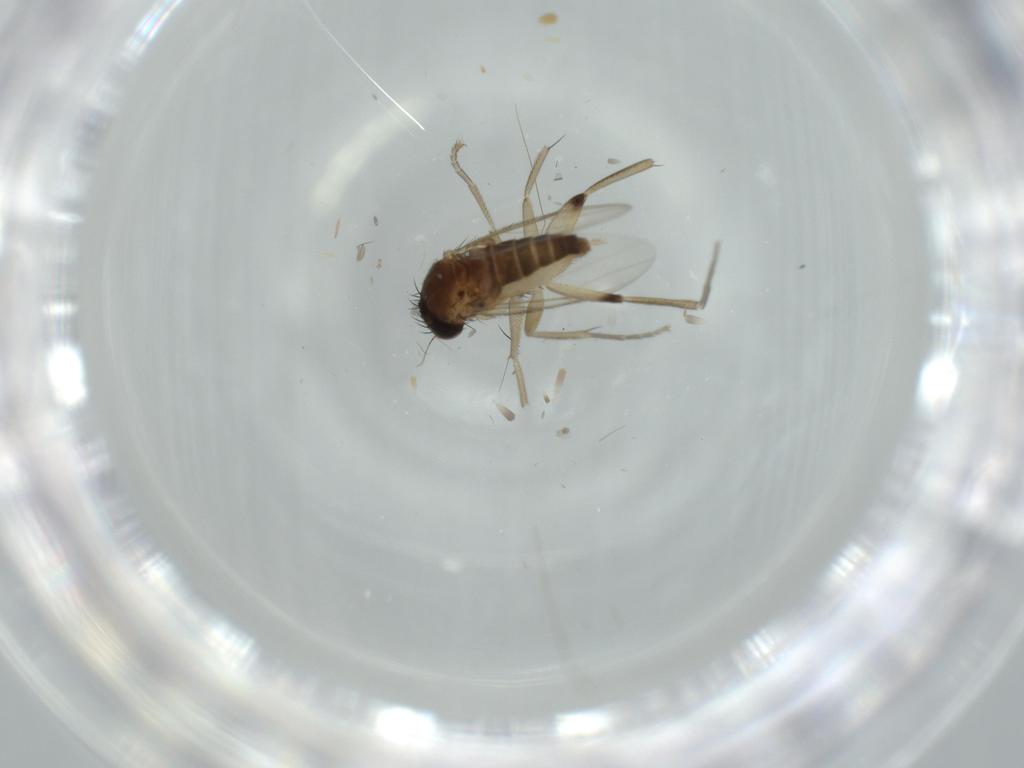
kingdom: Animalia
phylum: Arthropoda
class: Insecta
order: Diptera
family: Phoridae
